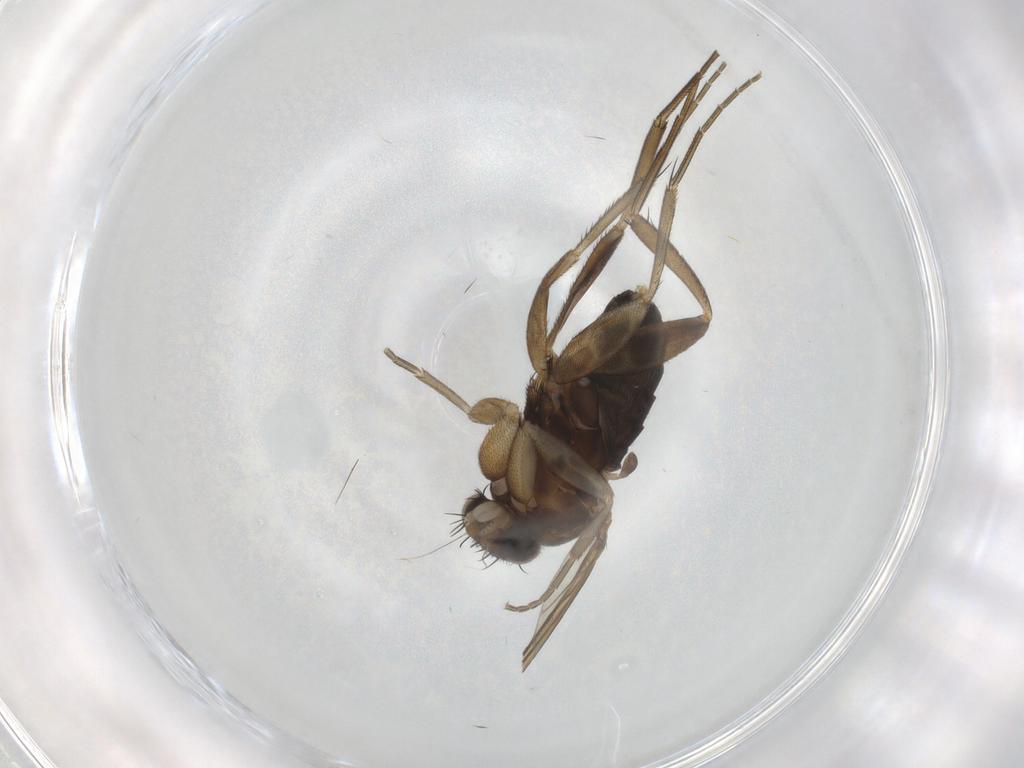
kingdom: Animalia
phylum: Arthropoda
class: Insecta
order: Diptera
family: Phoridae
